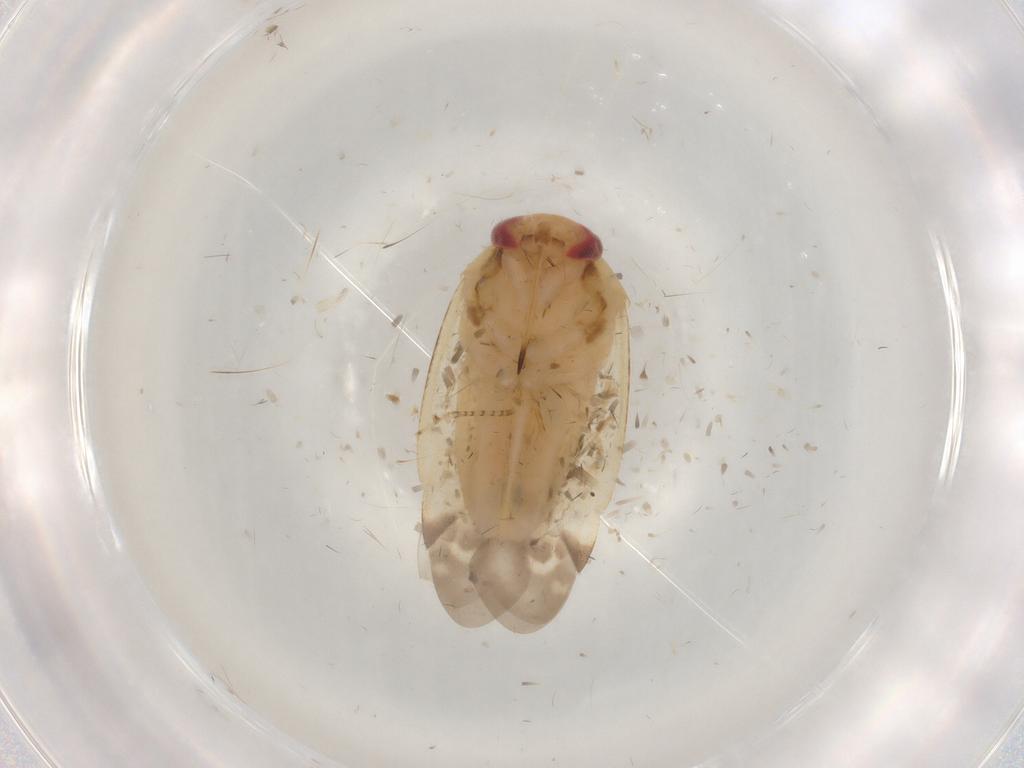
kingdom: Animalia
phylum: Arthropoda
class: Insecta
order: Hemiptera
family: Miridae
